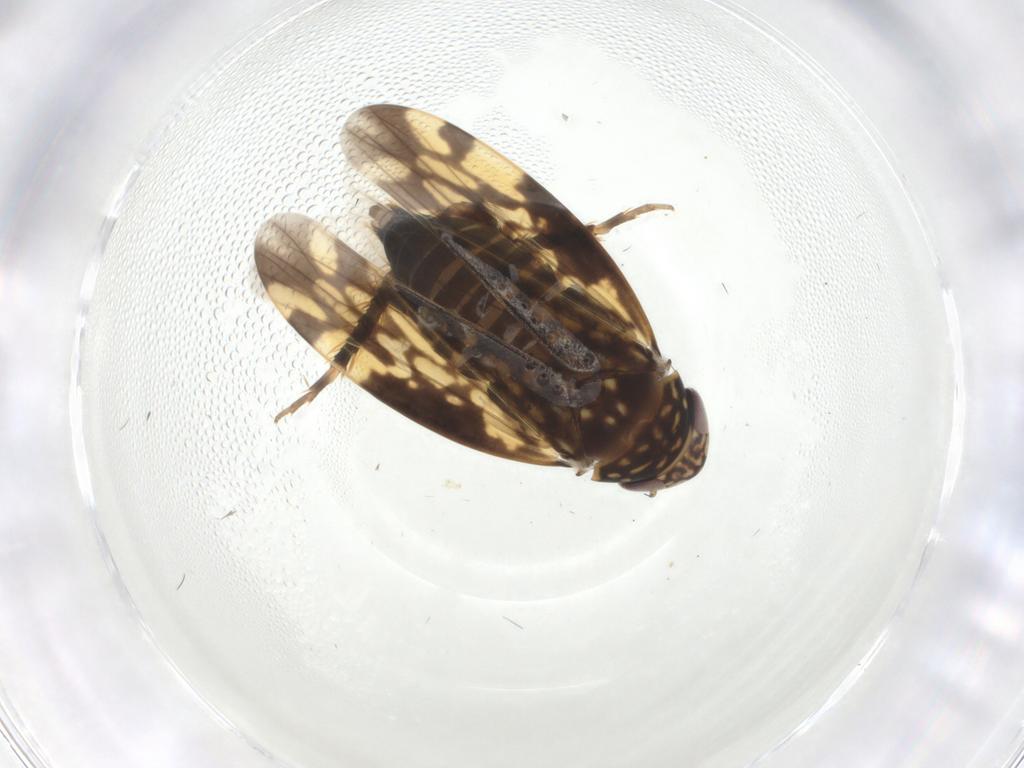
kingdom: Animalia
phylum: Arthropoda
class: Insecta
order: Hemiptera
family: Cicadellidae
